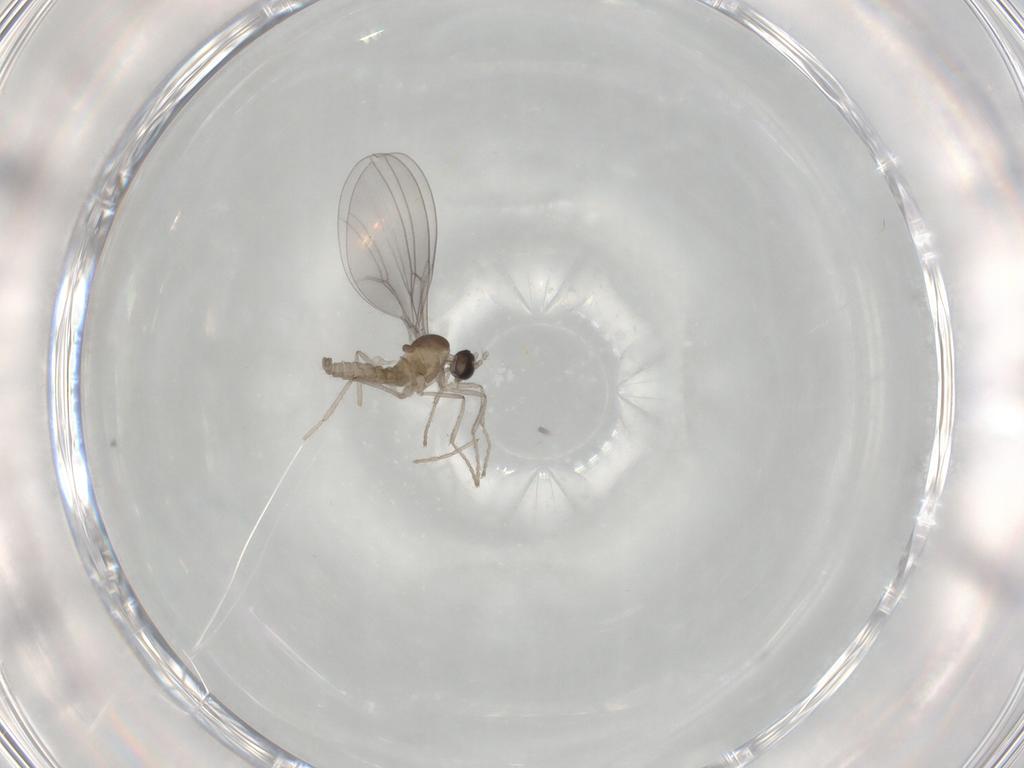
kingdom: Animalia
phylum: Arthropoda
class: Insecta
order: Diptera
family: Cecidomyiidae
